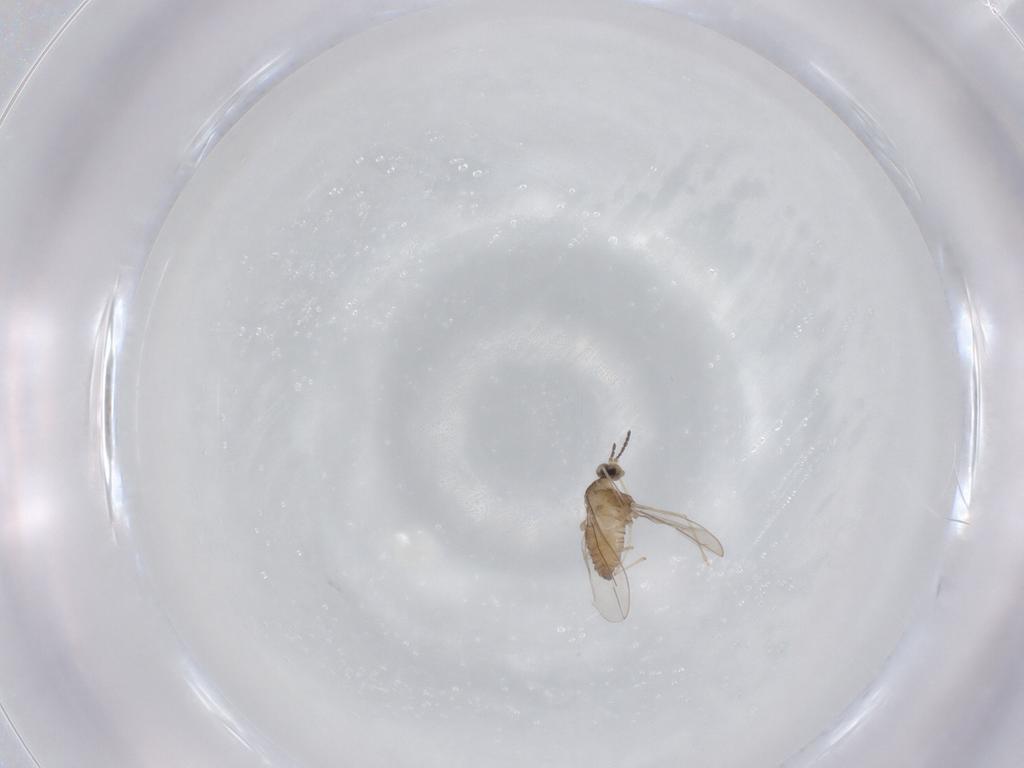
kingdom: Animalia
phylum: Arthropoda
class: Insecta
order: Diptera
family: Cecidomyiidae
